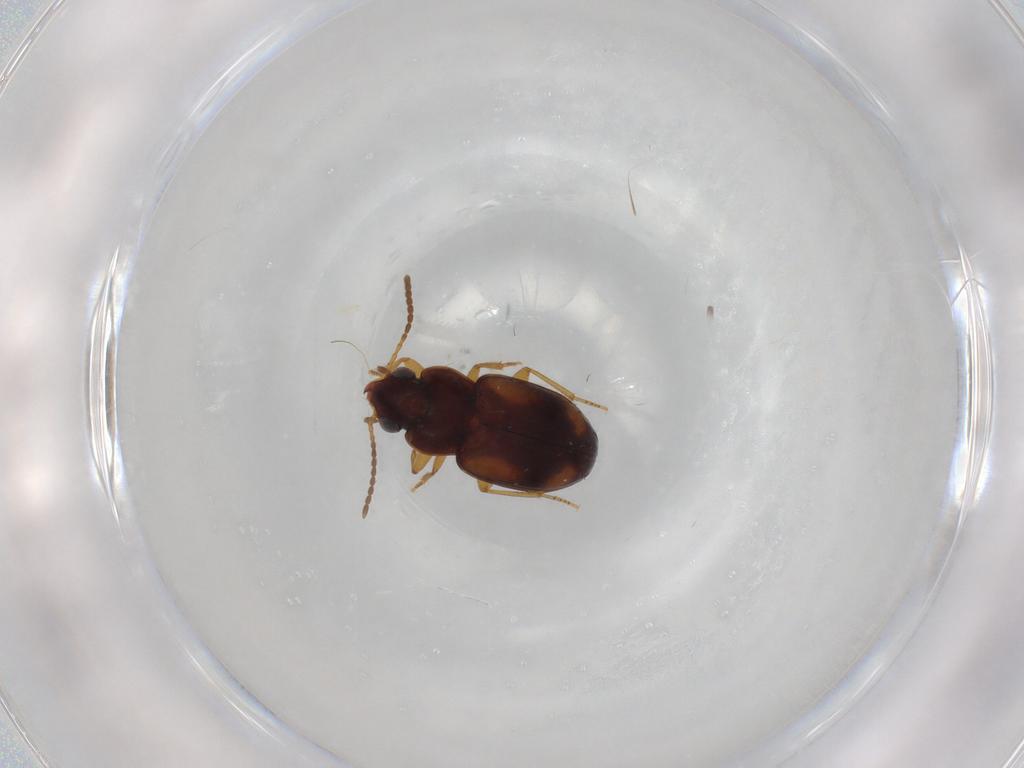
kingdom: Animalia
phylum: Arthropoda
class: Insecta
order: Coleoptera
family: Carabidae
